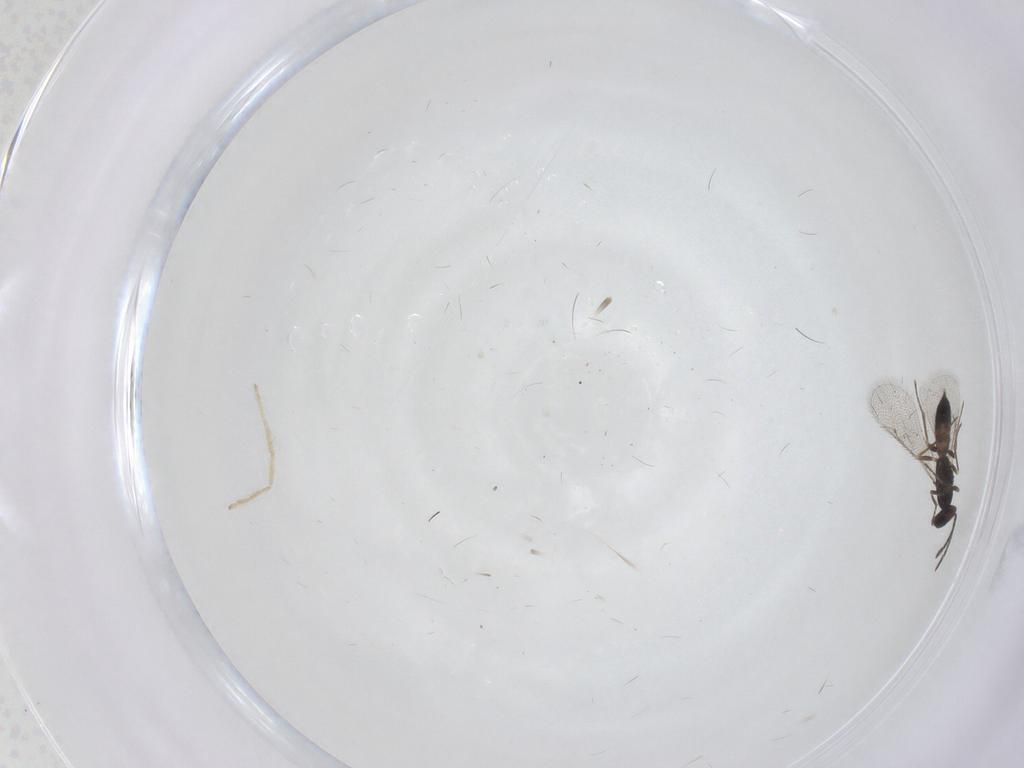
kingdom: Animalia
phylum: Arthropoda
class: Insecta
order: Hymenoptera
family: Eulophidae
